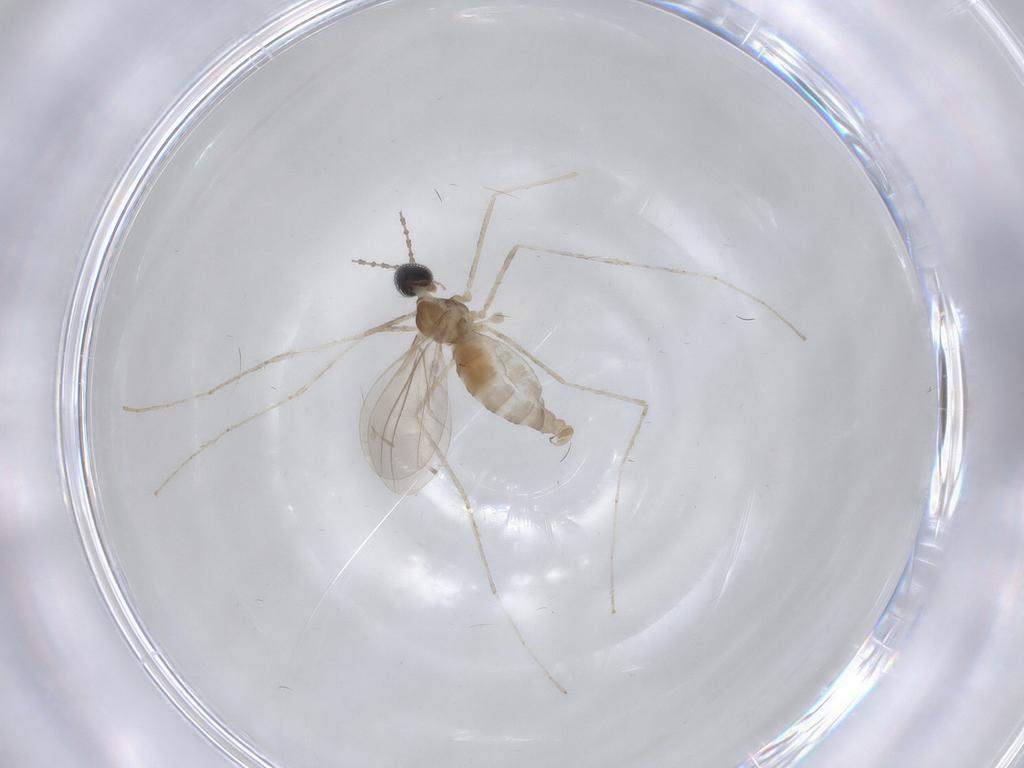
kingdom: Animalia
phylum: Arthropoda
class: Insecta
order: Diptera
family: Cecidomyiidae
